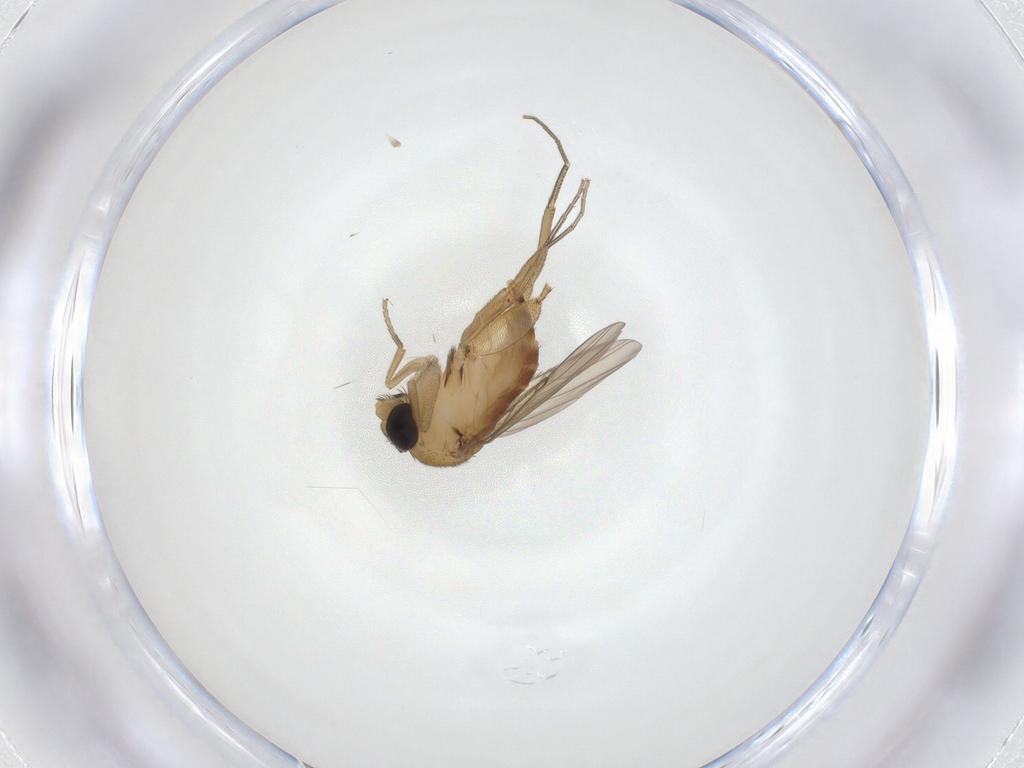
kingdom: Animalia
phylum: Arthropoda
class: Insecta
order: Diptera
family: Phoridae
